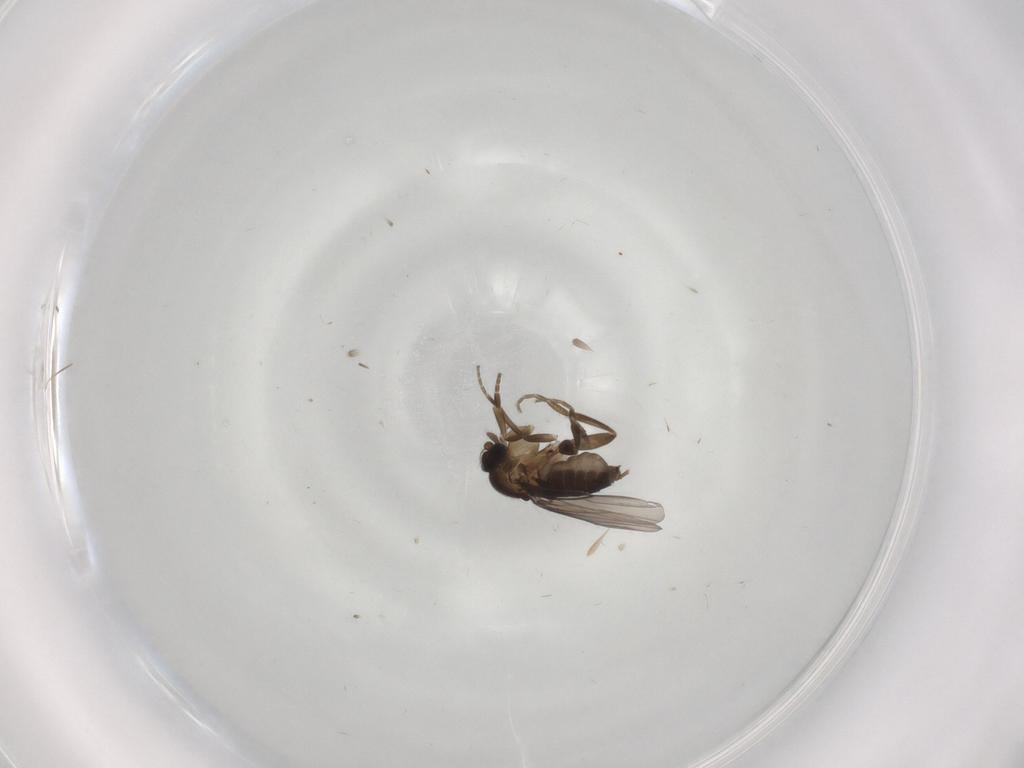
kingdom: Animalia
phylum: Arthropoda
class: Insecta
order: Diptera
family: Phoridae
